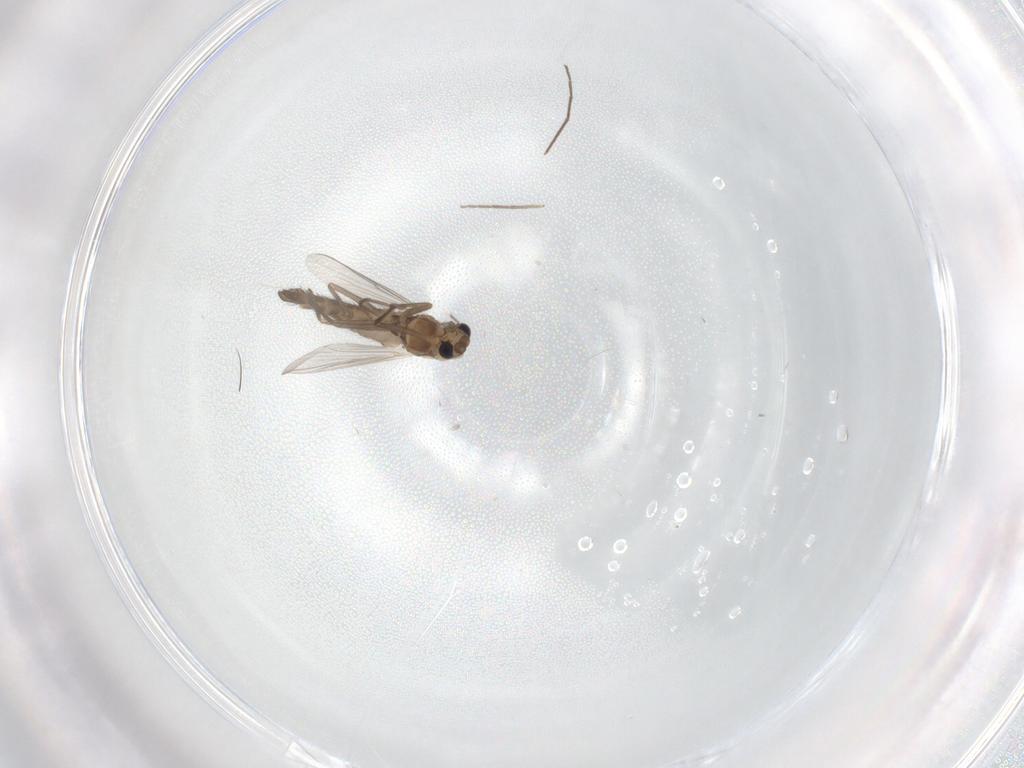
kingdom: Animalia
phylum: Arthropoda
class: Insecta
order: Diptera
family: Chironomidae
